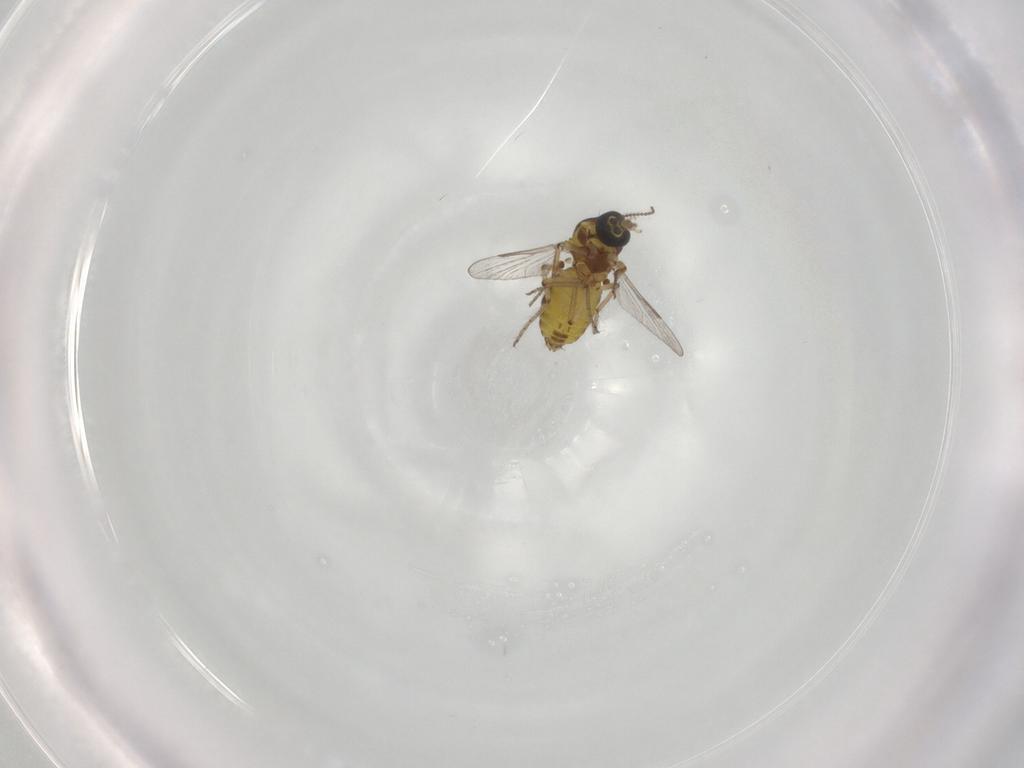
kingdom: Animalia
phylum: Arthropoda
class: Insecta
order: Diptera
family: Ceratopogonidae
